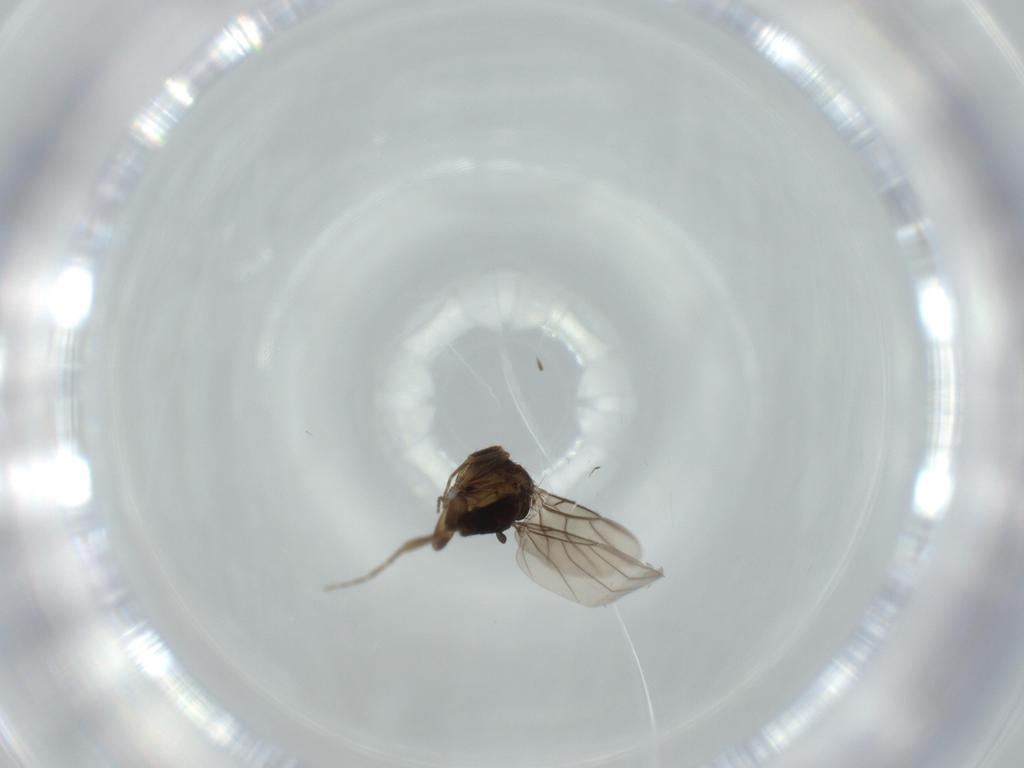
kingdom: Animalia
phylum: Arthropoda
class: Insecta
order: Diptera
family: Phoridae
